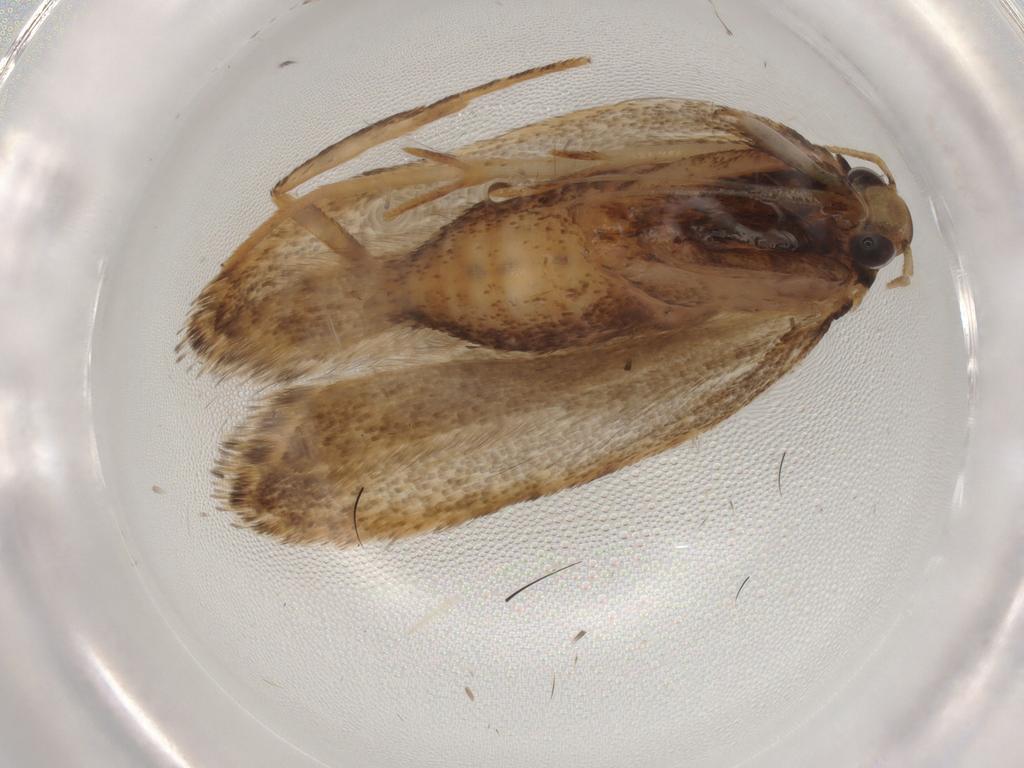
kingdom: Animalia
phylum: Arthropoda
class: Insecta
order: Lepidoptera
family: Gelechiidae
